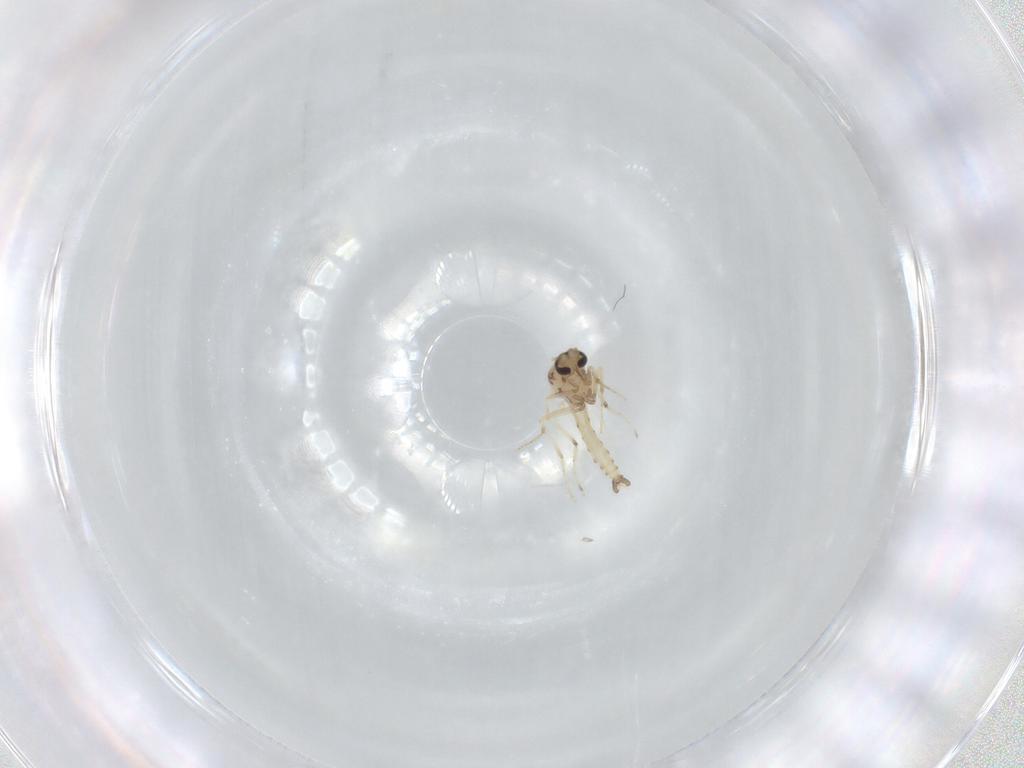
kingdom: Animalia
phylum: Arthropoda
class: Insecta
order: Diptera
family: Ceratopogonidae
